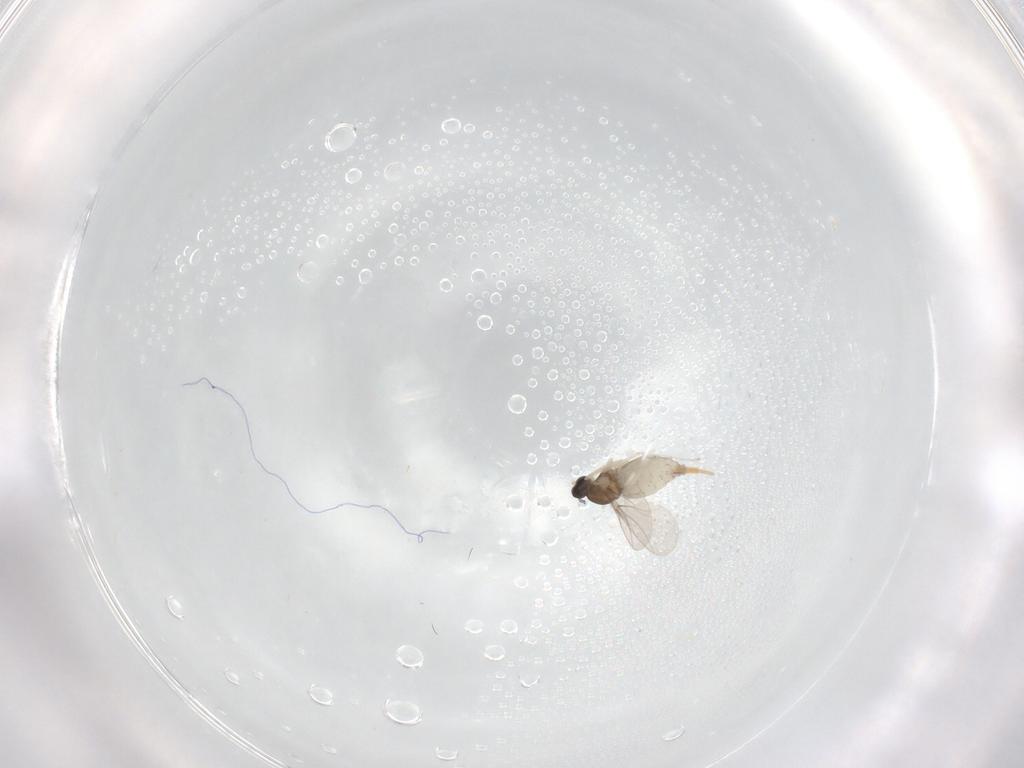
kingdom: Animalia
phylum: Arthropoda
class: Insecta
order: Diptera
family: Cecidomyiidae
